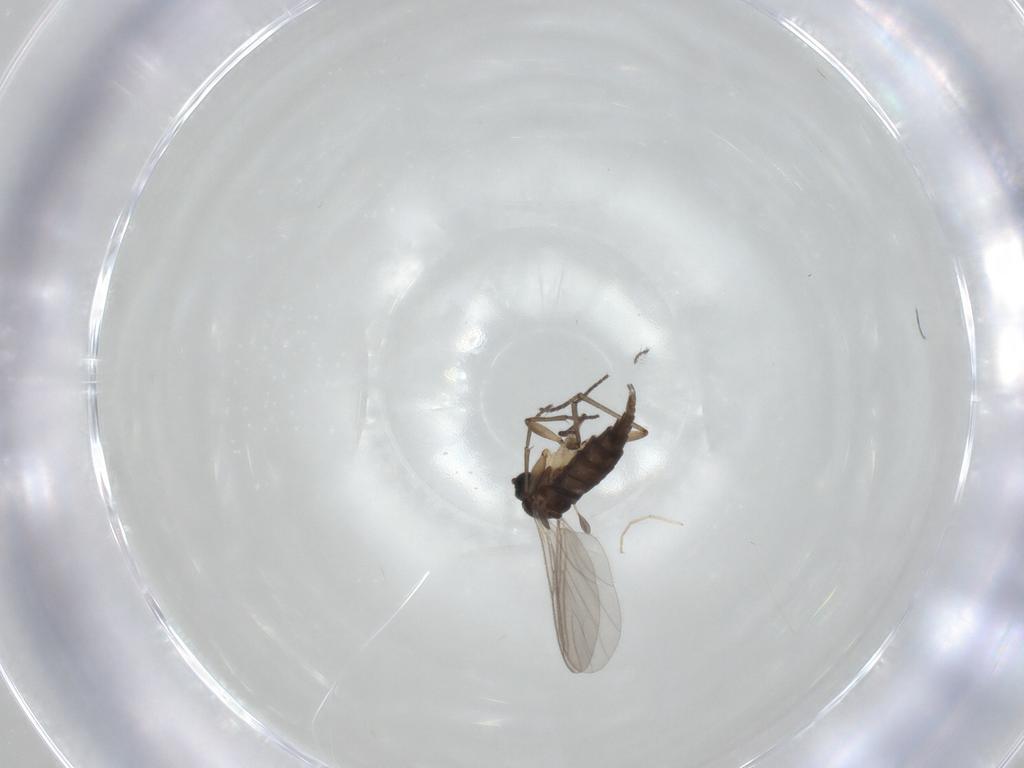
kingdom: Animalia
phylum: Arthropoda
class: Insecta
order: Diptera
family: Sciaridae
